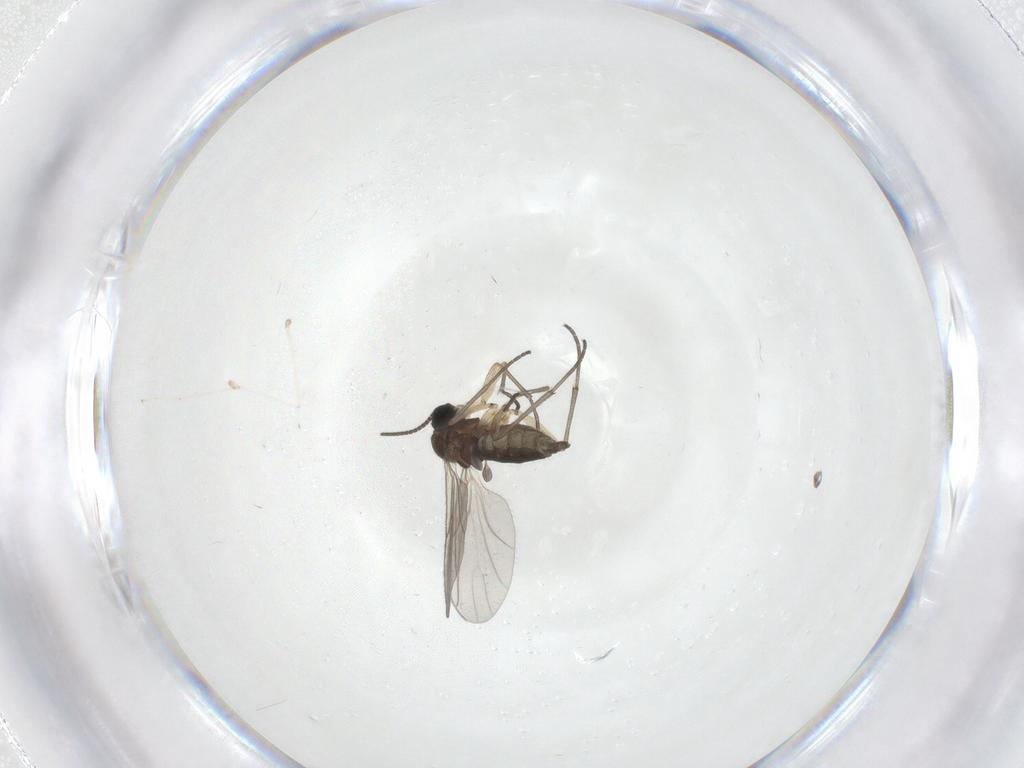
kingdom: Animalia
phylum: Arthropoda
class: Insecta
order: Diptera
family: Sciaridae
